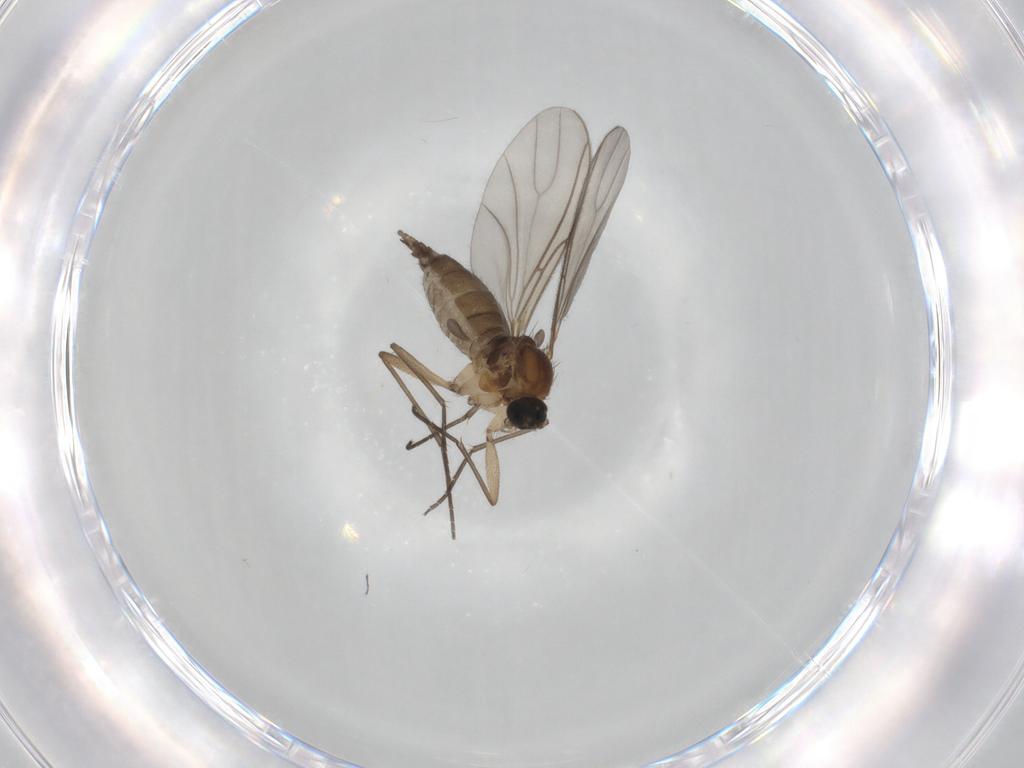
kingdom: Animalia
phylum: Arthropoda
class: Insecta
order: Diptera
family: Sciaridae
